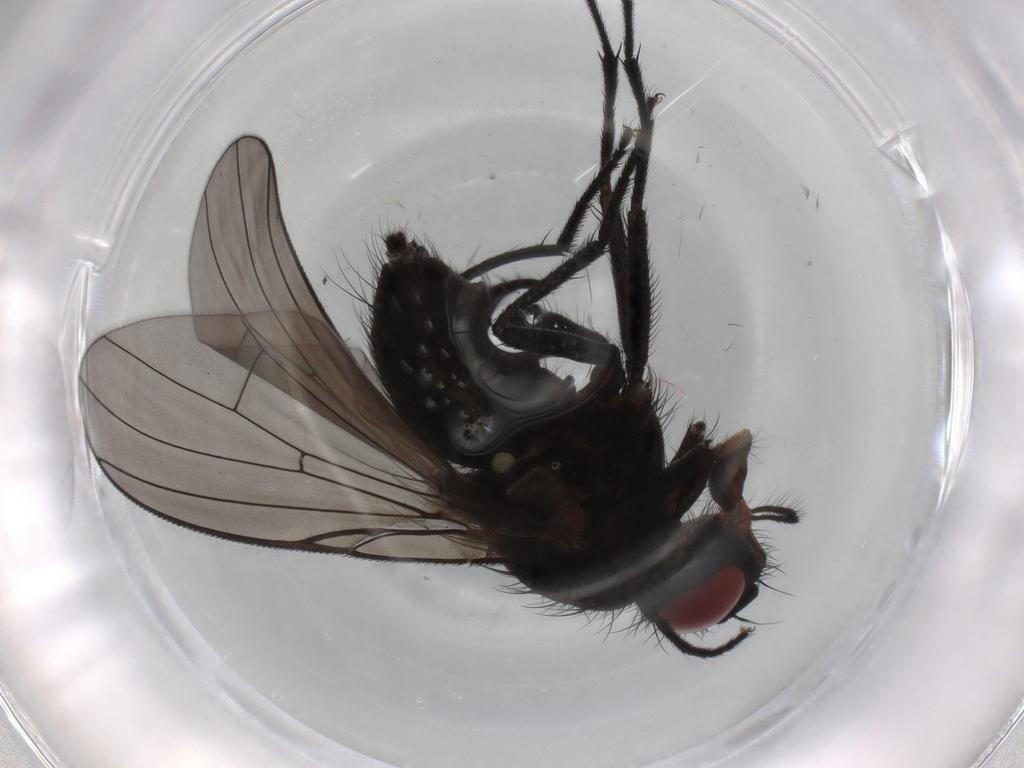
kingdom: Animalia
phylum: Arthropoda
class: Insecta
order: Diptera
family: Muscidae
